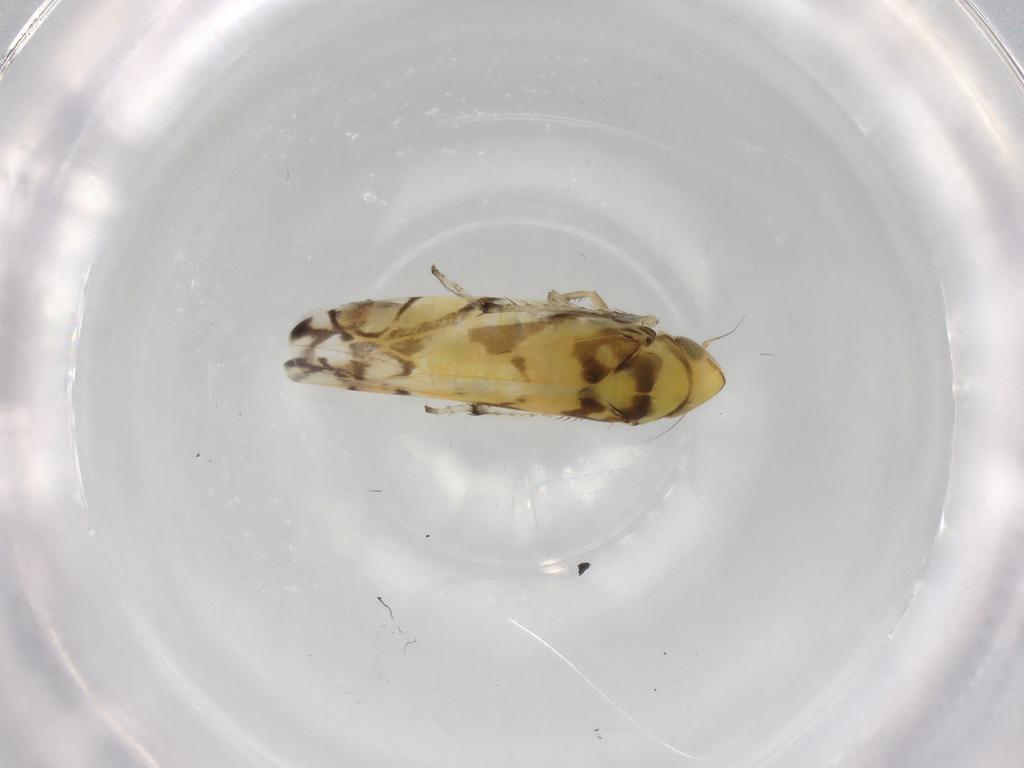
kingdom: Animalia
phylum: Arthropoda
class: Insecta
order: Hemiptera
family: Cicadellidae
